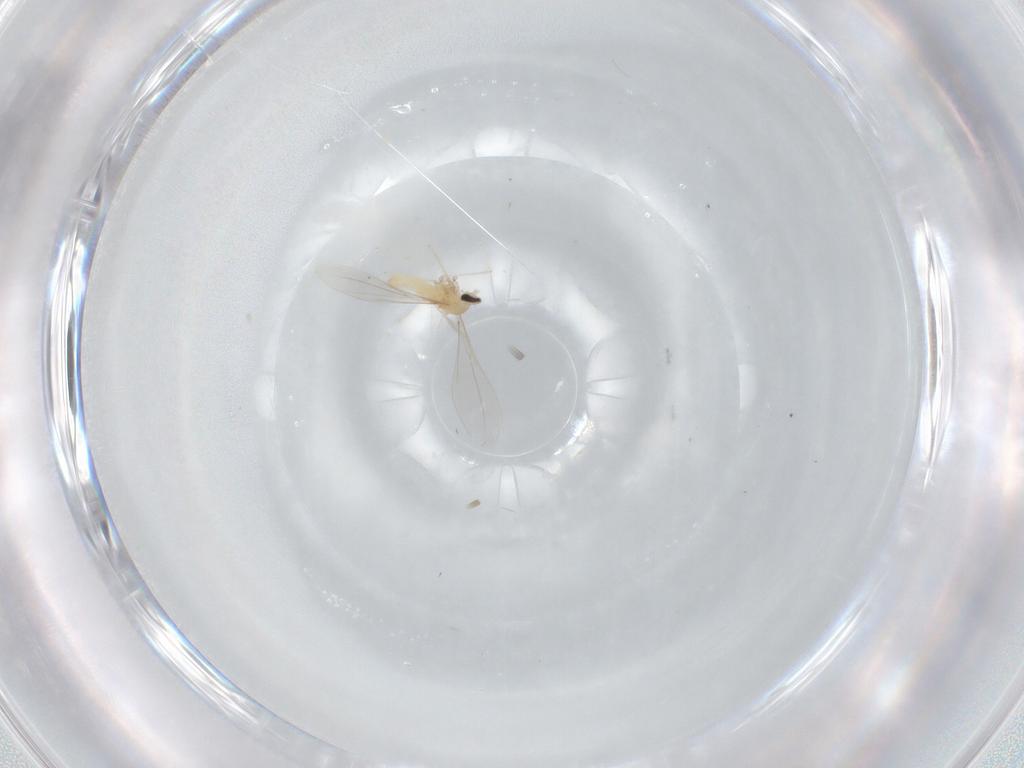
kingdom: Animalia
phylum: Arthropoda
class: Insecta
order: Diptera
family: Cecidomyiidae
